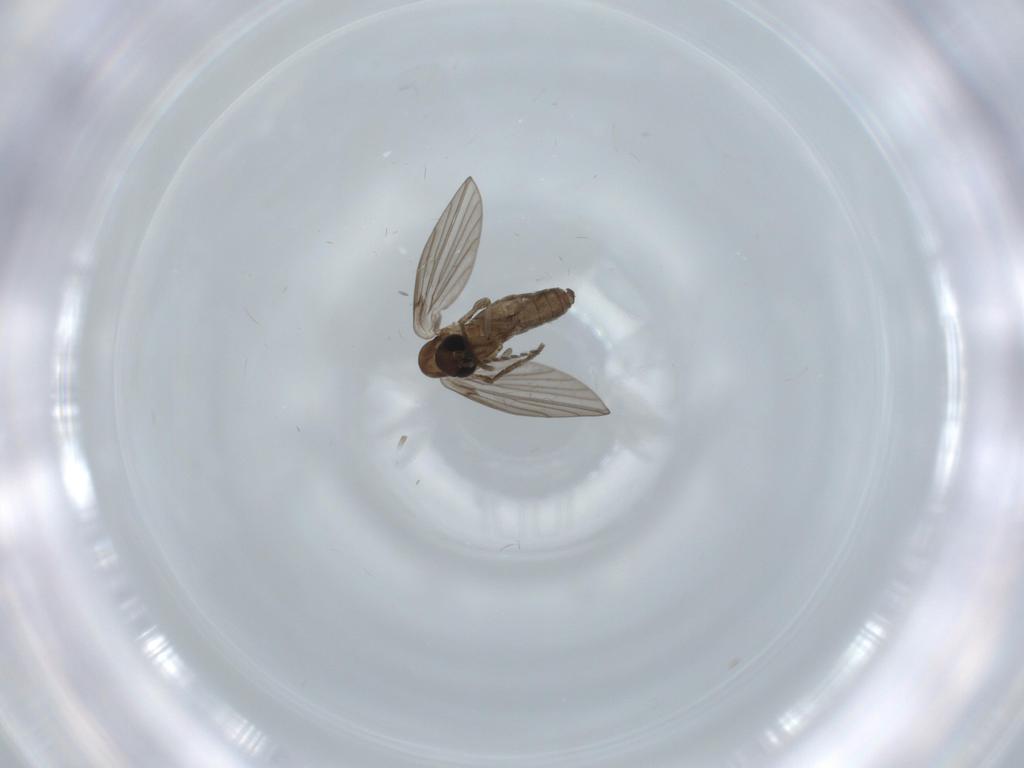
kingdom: Animalia
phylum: Arthropoda
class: Insecta
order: Diptera
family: Psychodidae
